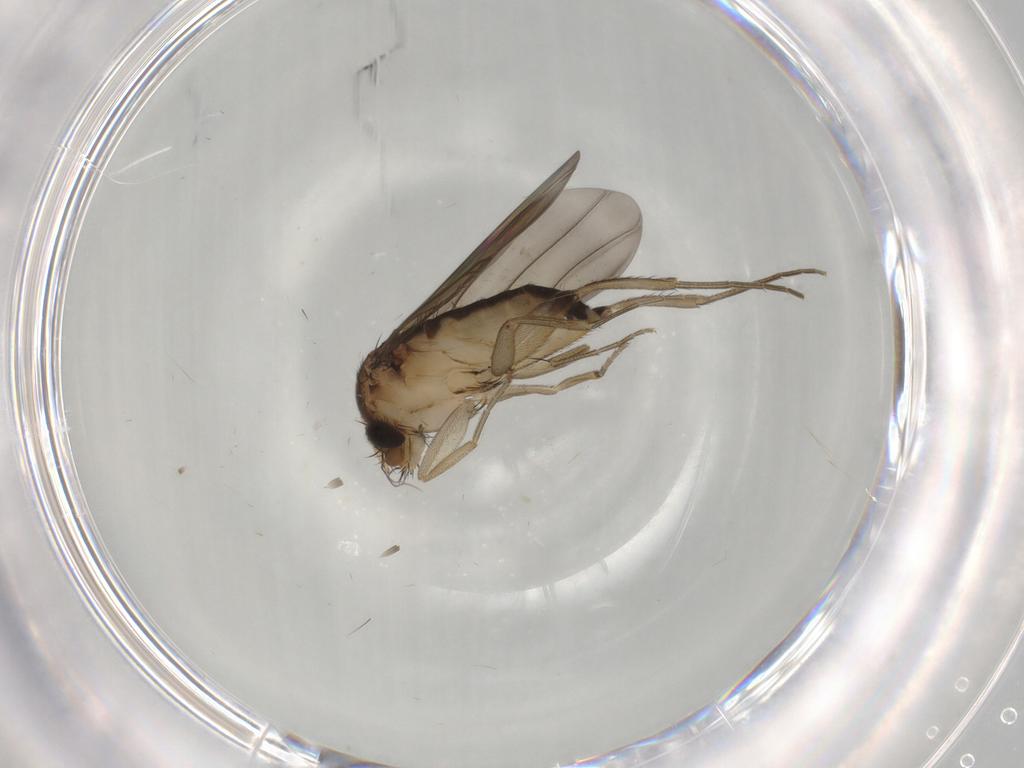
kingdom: Animalia
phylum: Arthropoda
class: Insecta
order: Diptera
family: Phoridae
